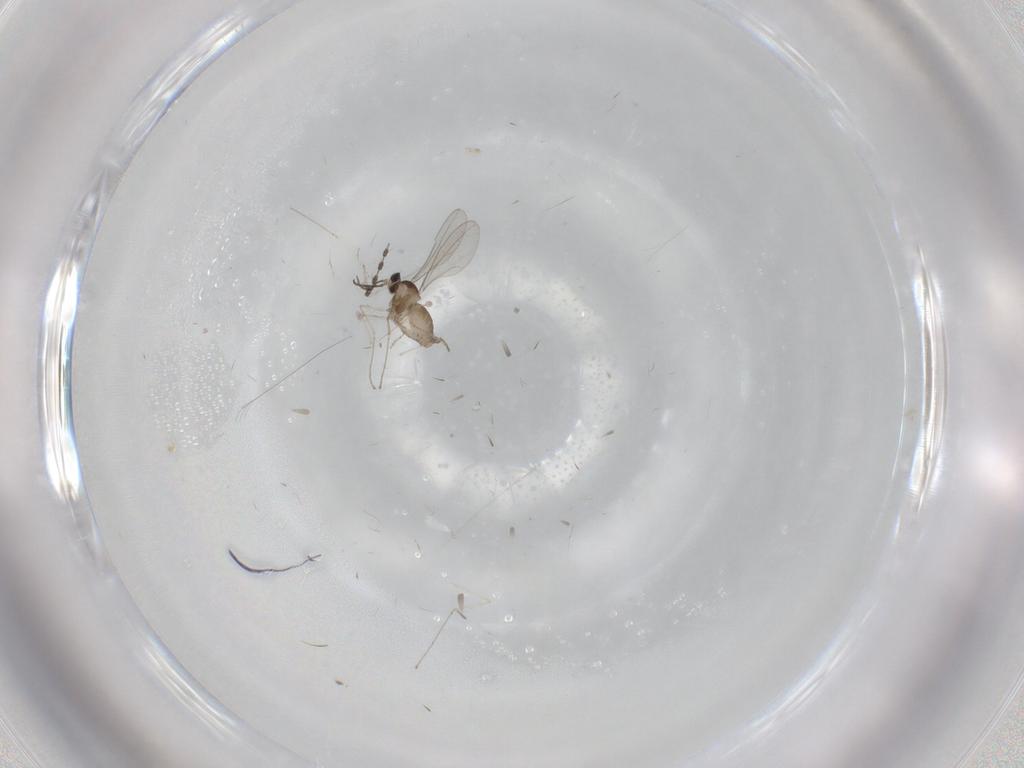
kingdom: Animalia
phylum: Arthropoda
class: Insecta
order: Diptera
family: Cecidomyiidae
